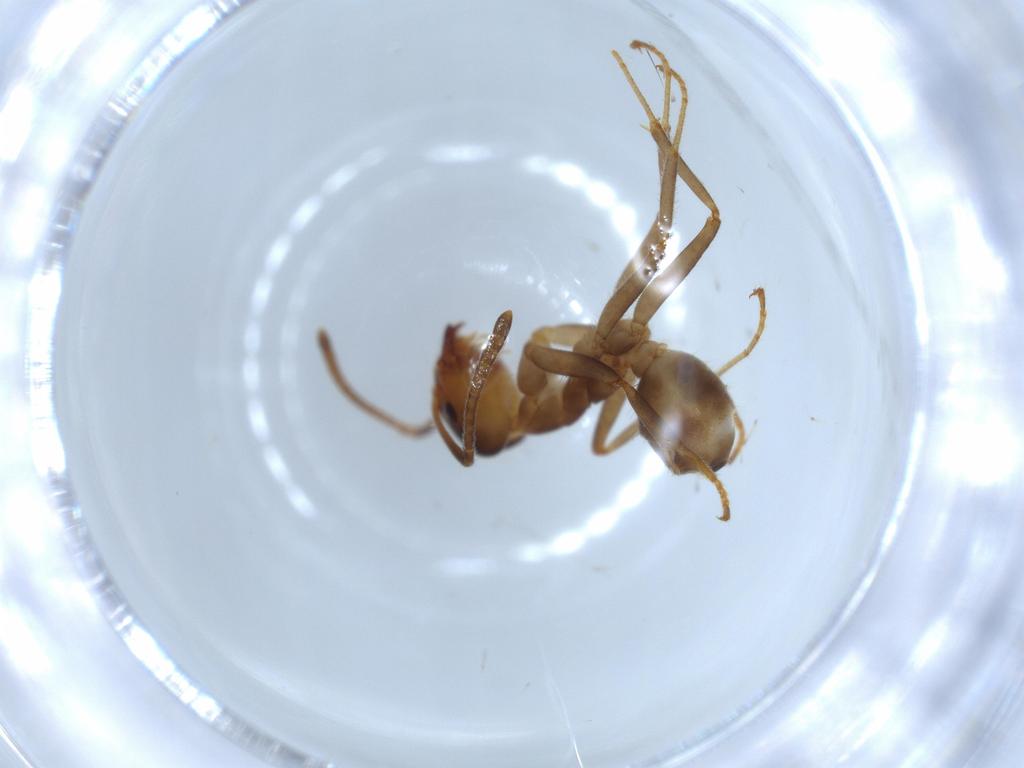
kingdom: Animalia
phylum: Arthropoda
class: Insecta
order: Hymenoptera
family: Formicidae
